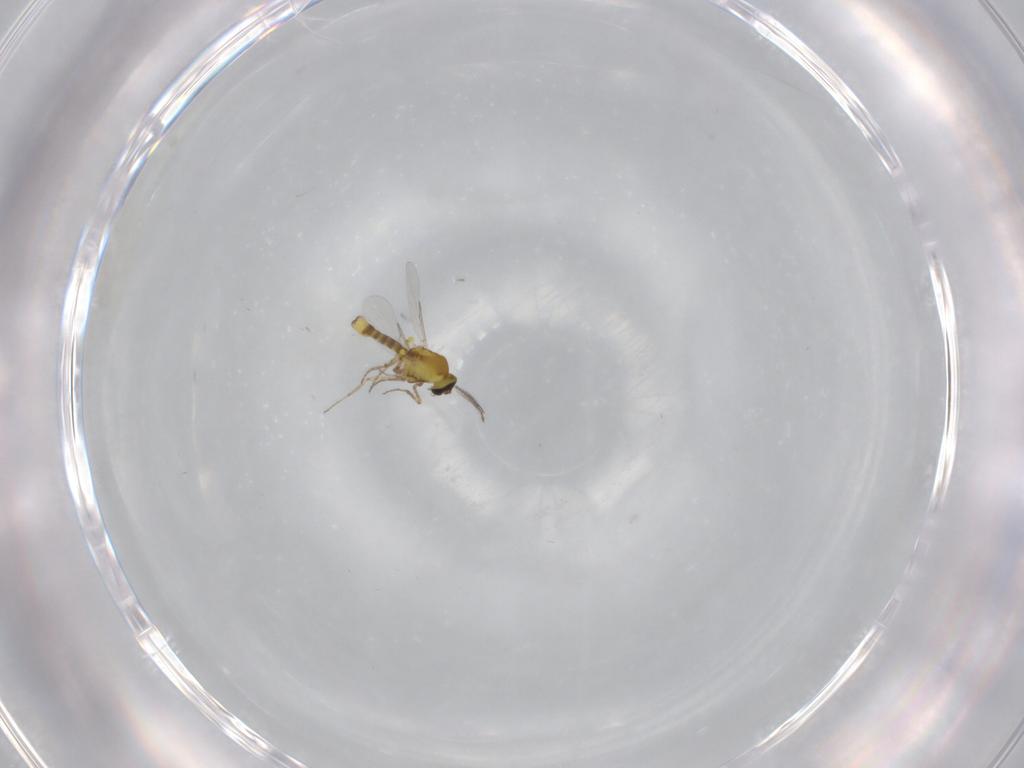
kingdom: Animalia
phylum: Arthropoda
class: Insecta
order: Diptera
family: Ceratopogonidae
